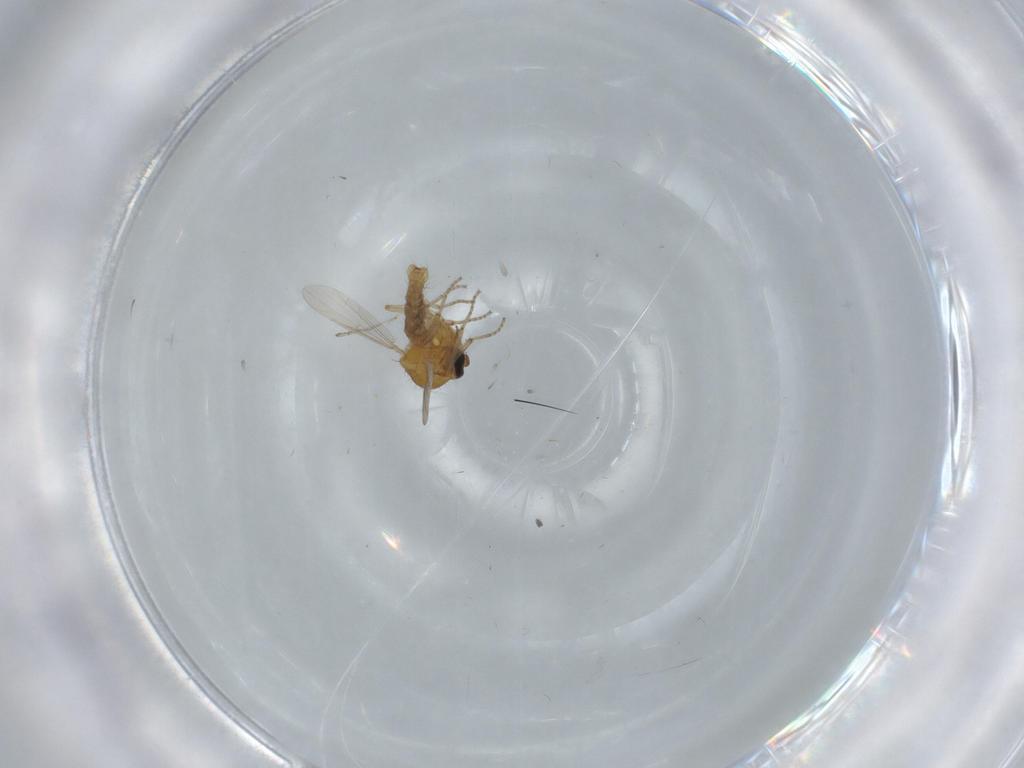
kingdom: Animalia
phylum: Arthropoda
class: Insecta
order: Diptera
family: Ceratopogonidae
